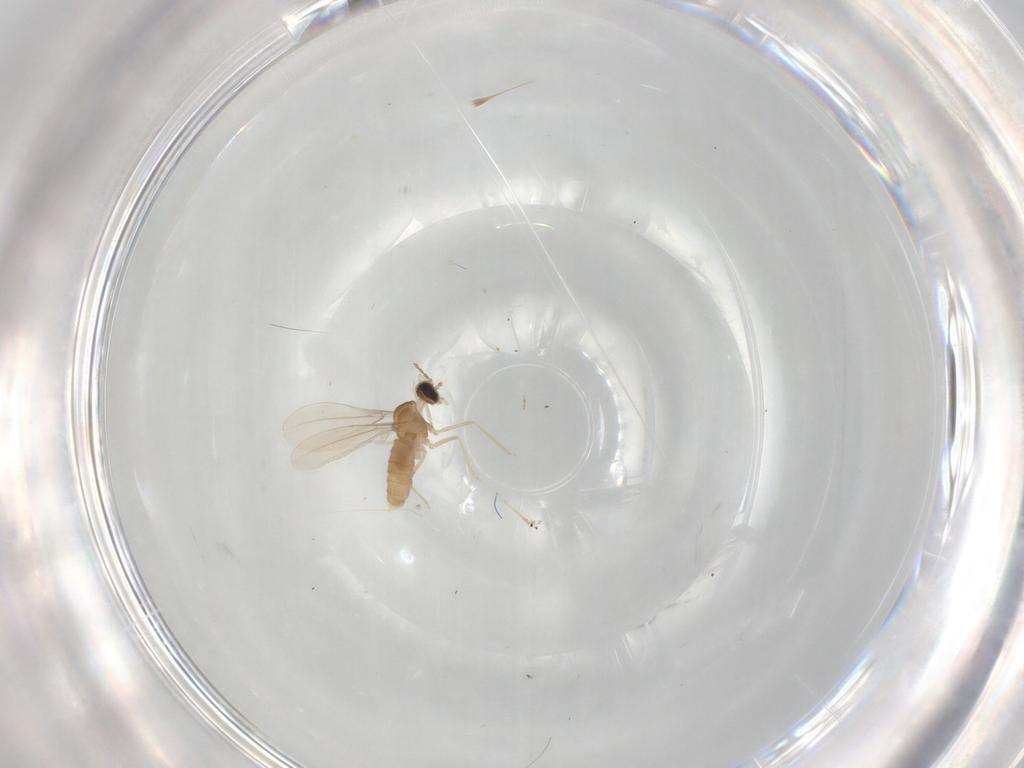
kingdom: Animalia
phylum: Arthropoda
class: Insecta
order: Diptera
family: Cecidomyiidae
